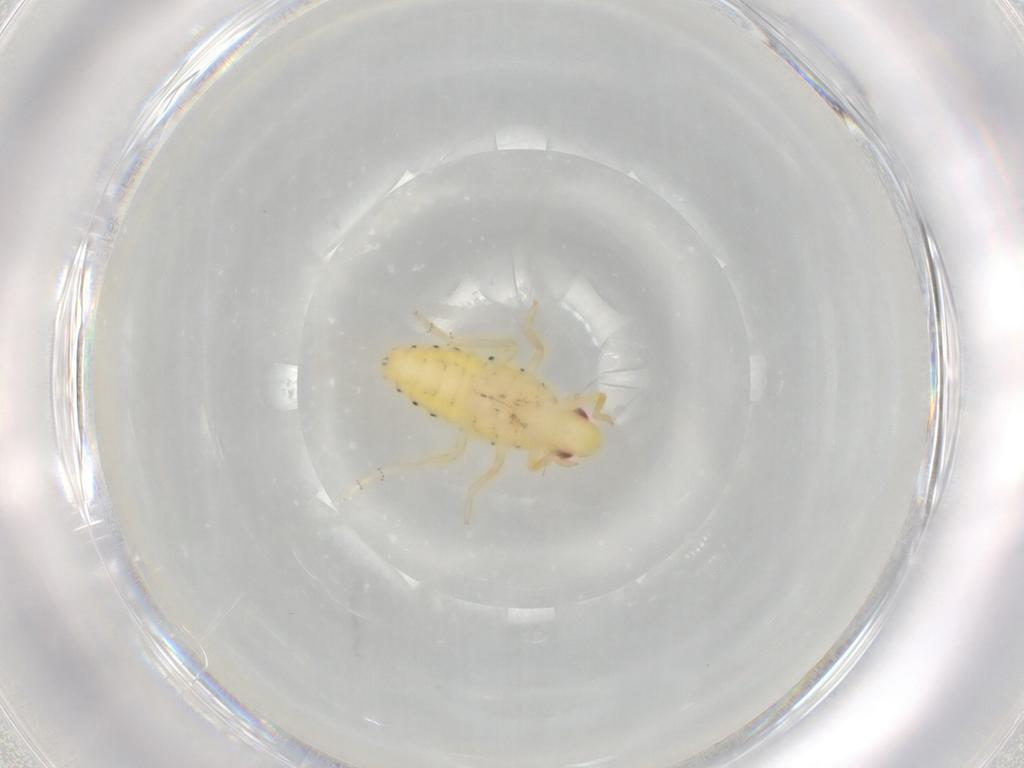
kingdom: Animalia
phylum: Arthropoda
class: Insecta
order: Hemiptera
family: Tropiduchidae
